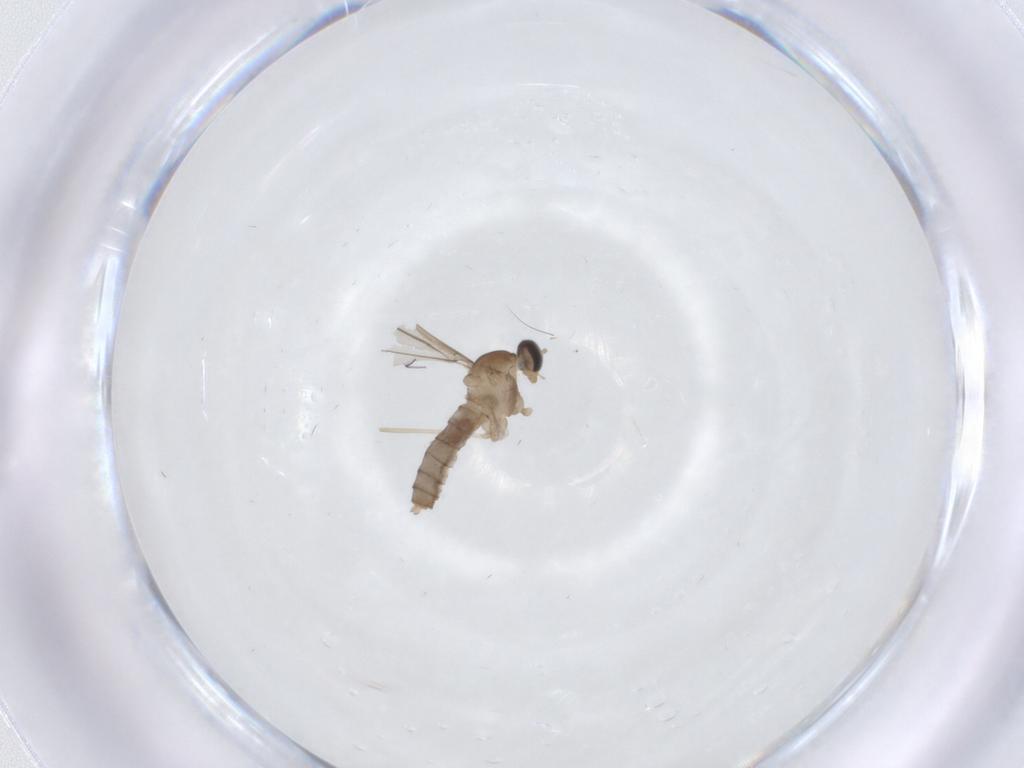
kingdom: Animalia
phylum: Arthropoda
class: Insecta
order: Diptera
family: Cecidomyiidae
